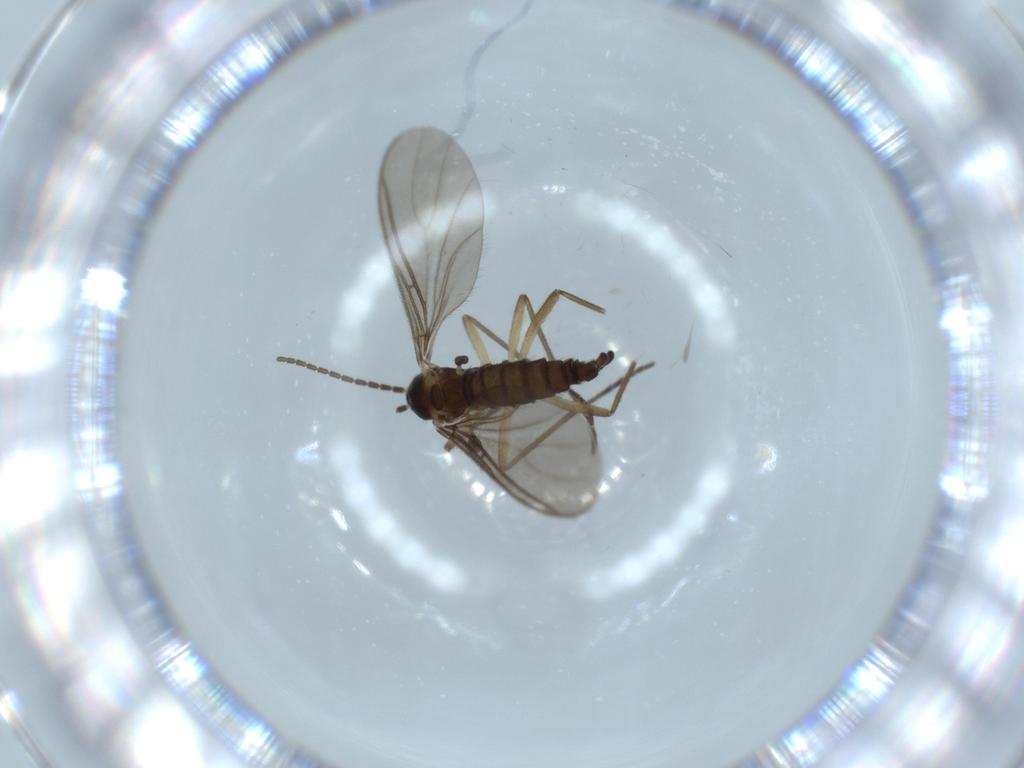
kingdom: Animalia
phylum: Arthropoda
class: Insecta
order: Diptera
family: Sciaridae
